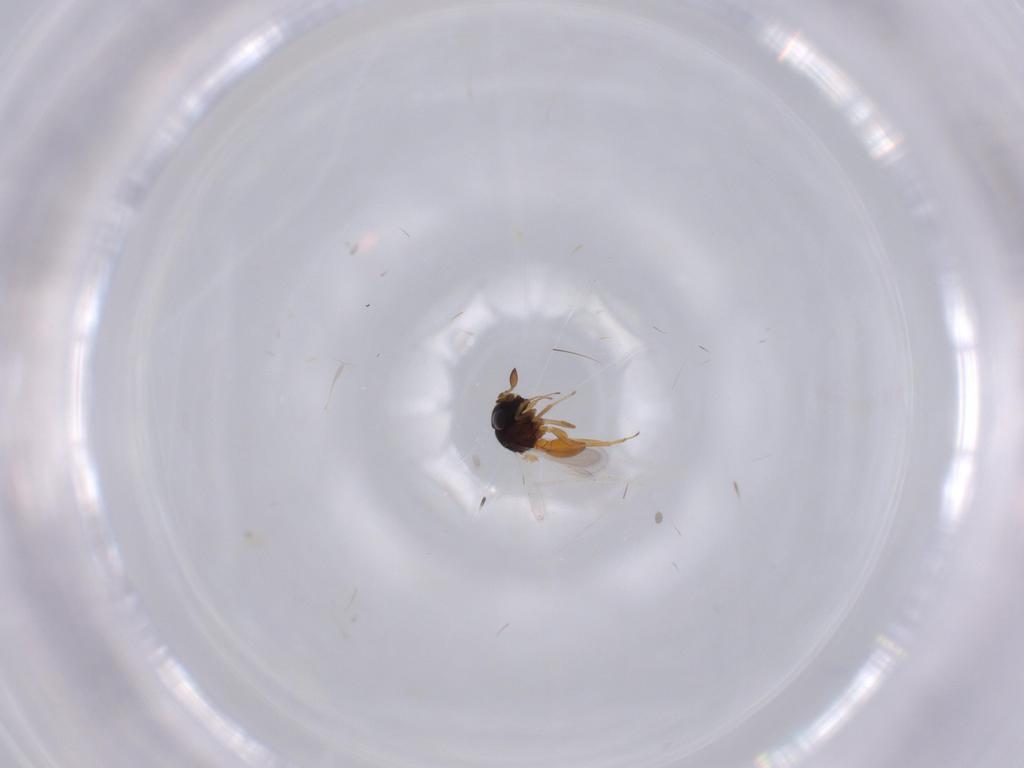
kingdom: Animalia
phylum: Arthropoda
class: Insecta
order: Hymenoptera
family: Scelionidae
